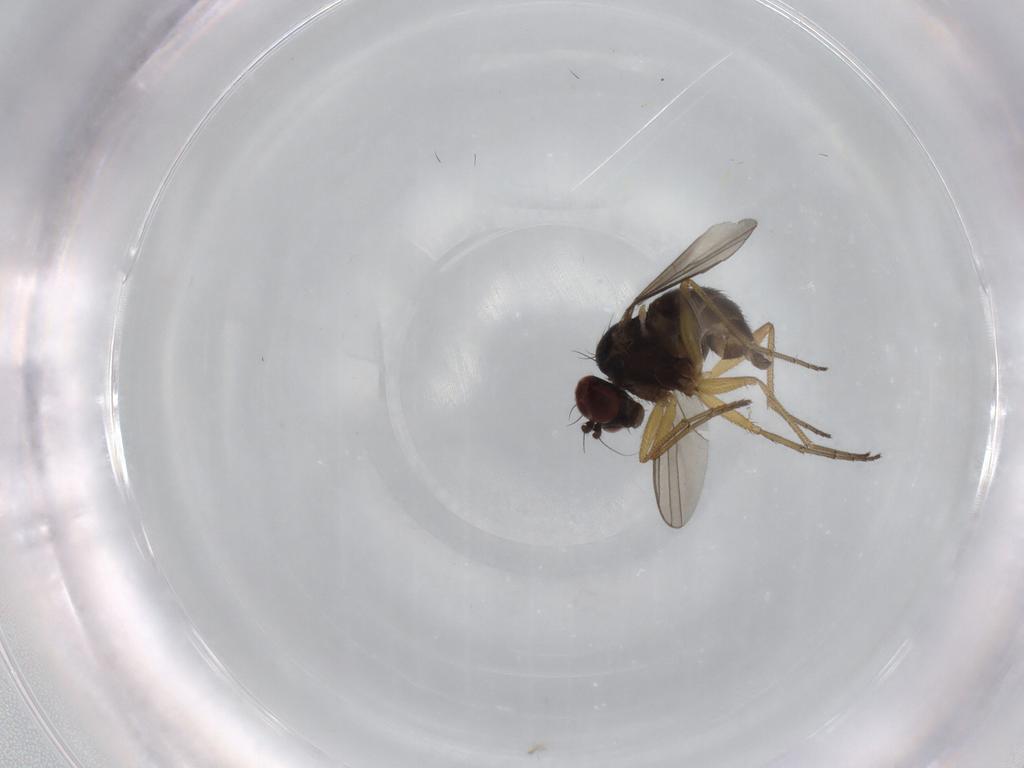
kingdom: Animalia
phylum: Arthropoda
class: Insecta
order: Diptera
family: Dolichopodidae
